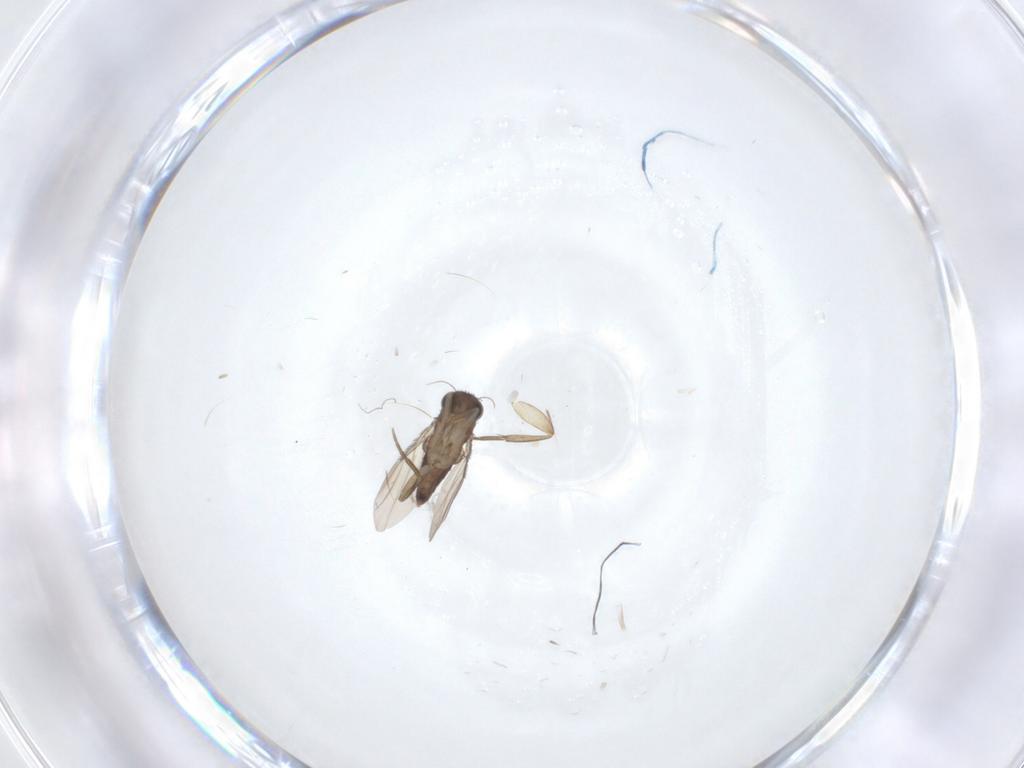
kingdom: Animalia
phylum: Arthropoda
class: Insecta
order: Diptera
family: Phoridae
